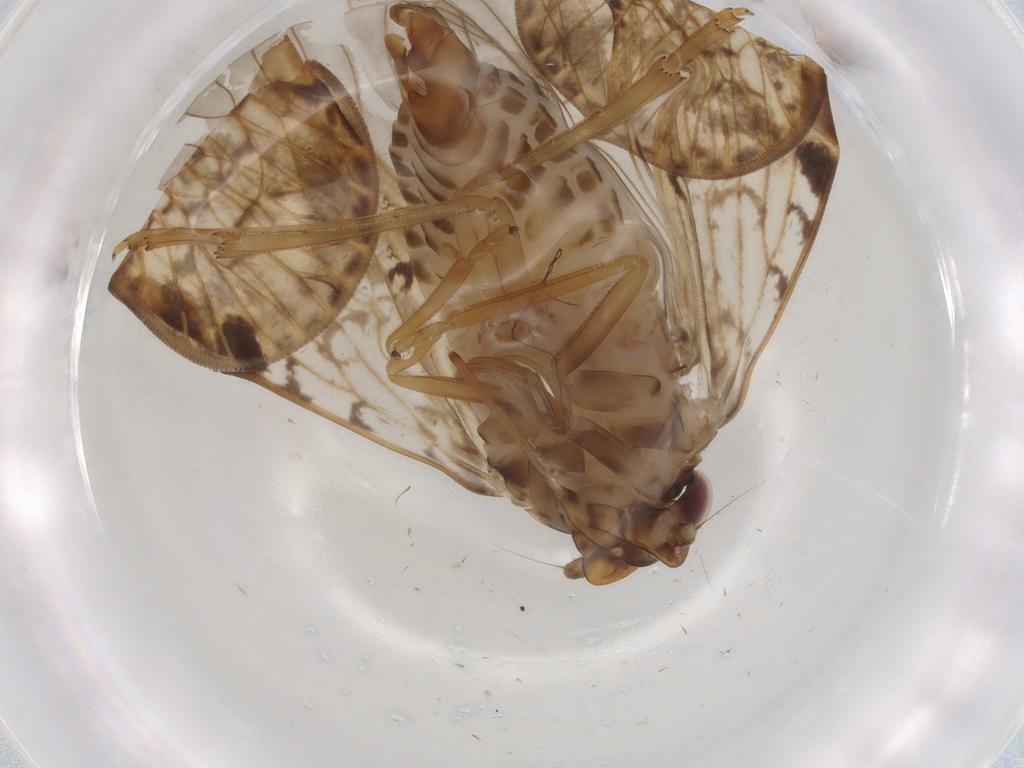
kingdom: Animalia
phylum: Arthropoda
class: Insecta
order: Hemiptera
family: Cixiidae
